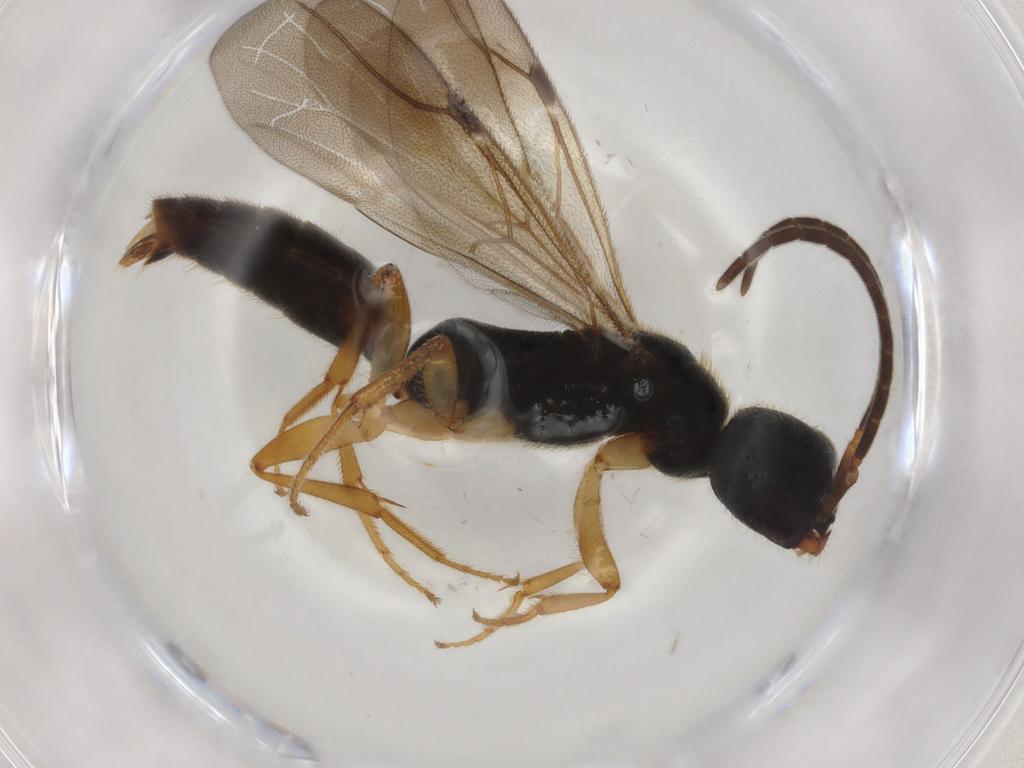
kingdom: Animalia
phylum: Arthropoda
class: Insecta
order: Hymenoptera
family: Bethylidae
